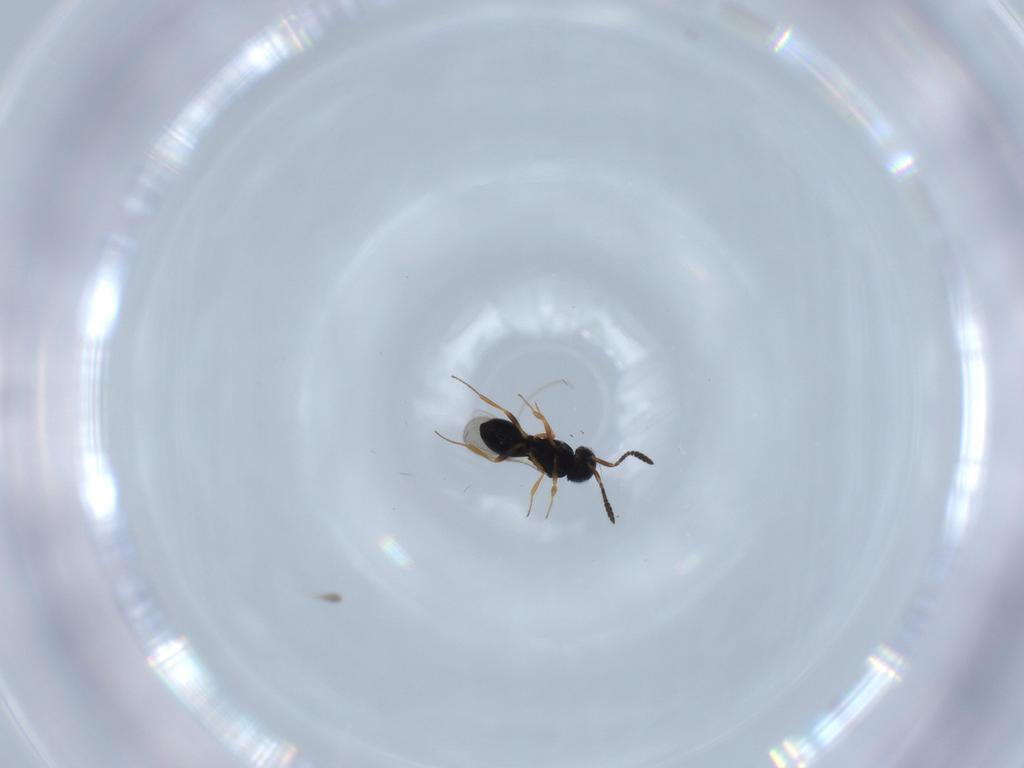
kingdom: Animalia
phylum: Arthropoda
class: Insecta
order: Hymenoptera
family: Scelionidae
